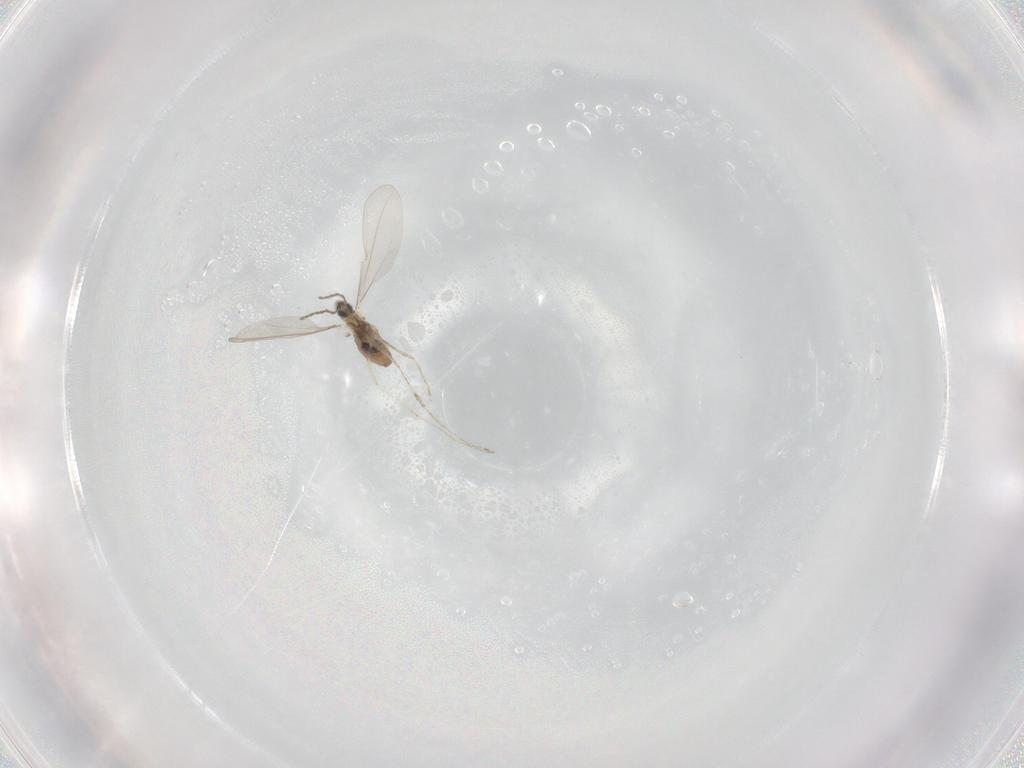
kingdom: Animalia
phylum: Arthropoda
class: Insecta
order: Diptera
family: Cecidomyiidae
